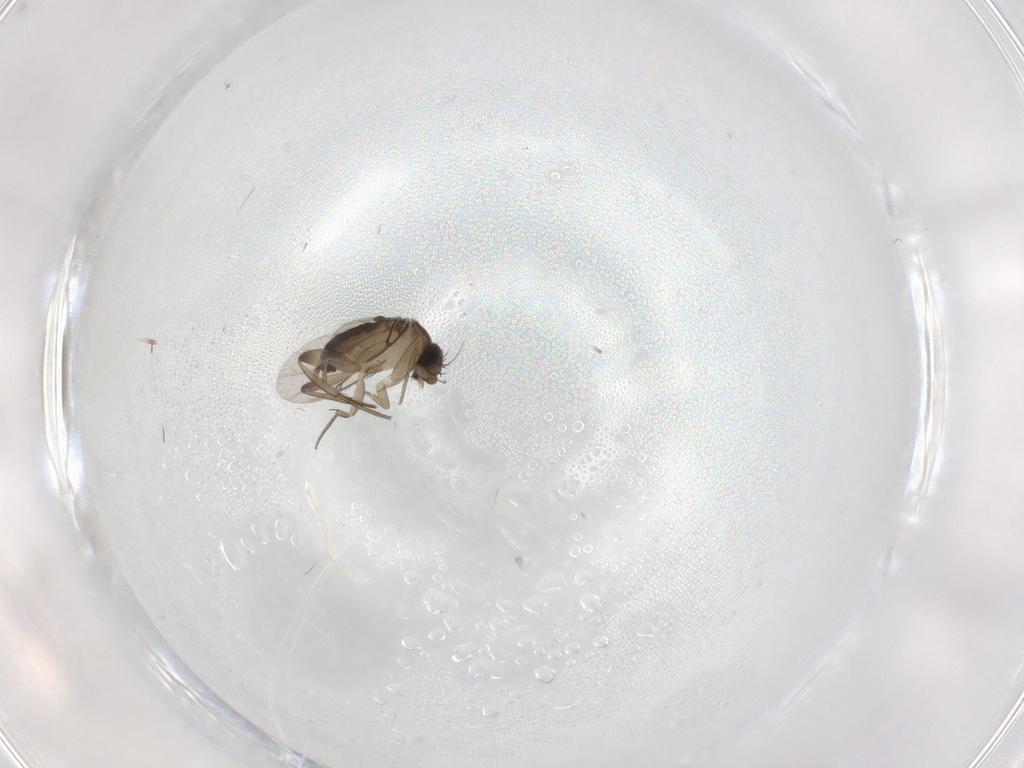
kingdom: Animalia
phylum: Arthropoda
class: Insecta
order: Diptera
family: Phoridae
